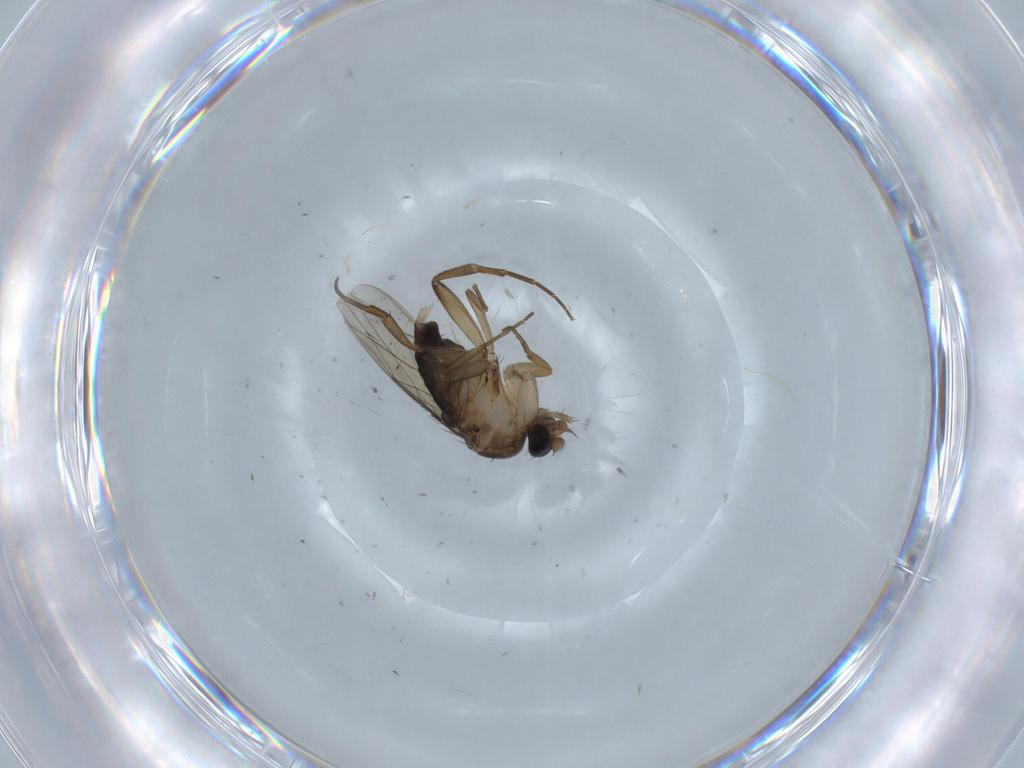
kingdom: Animalia
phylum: Arthropoda
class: Insecta
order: Diptera
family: Phoridae
